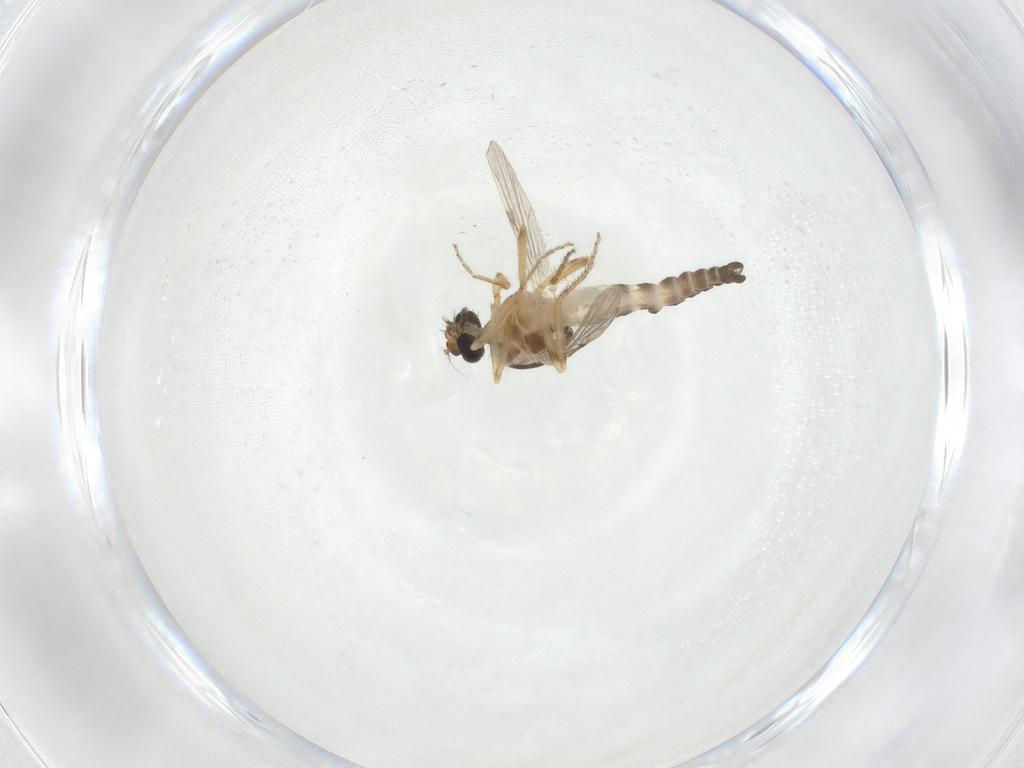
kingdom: Animalia
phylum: Arthropoda
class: Insecta
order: Diptera
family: Ceratopogonidae
